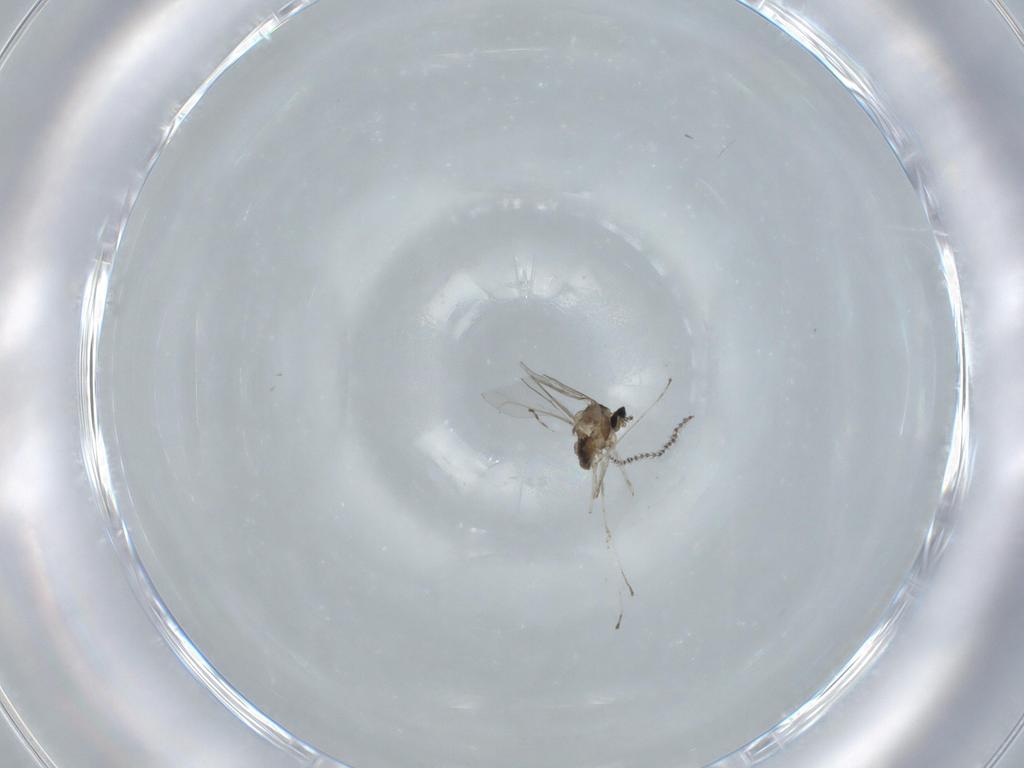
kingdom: Animalia
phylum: Arthropoda
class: Insecta
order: Diptera
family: Cecidomyiidae
